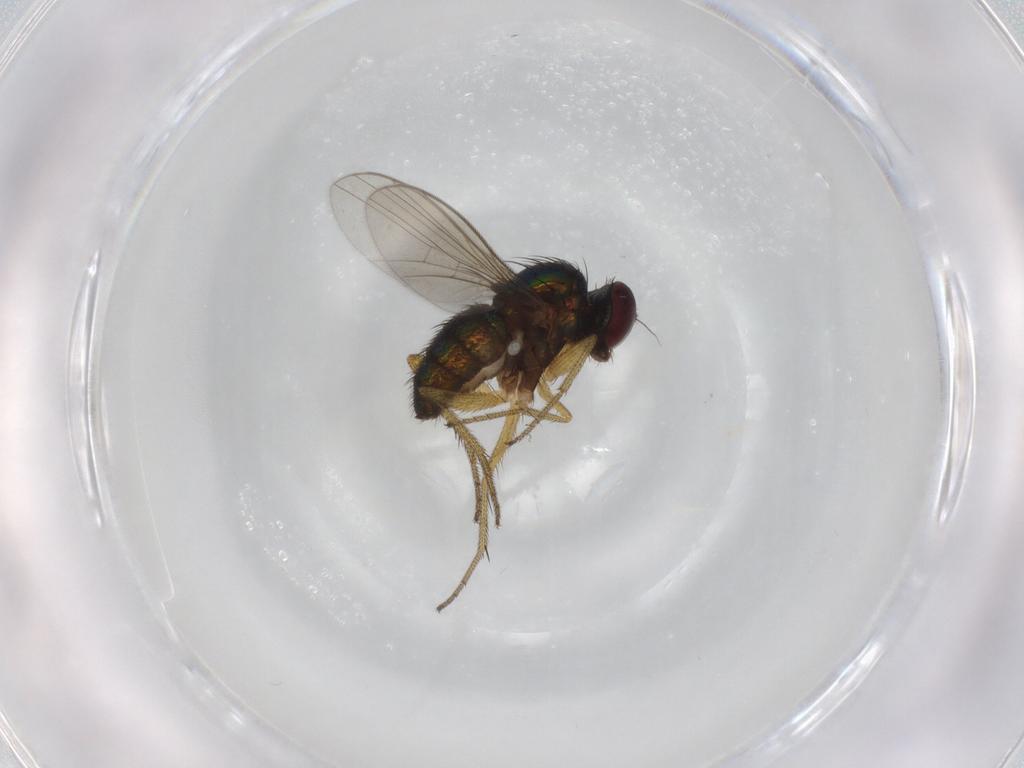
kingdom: Animalia
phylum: Arthropoda
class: Insecta
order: Diptera
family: Dolichopodidae
